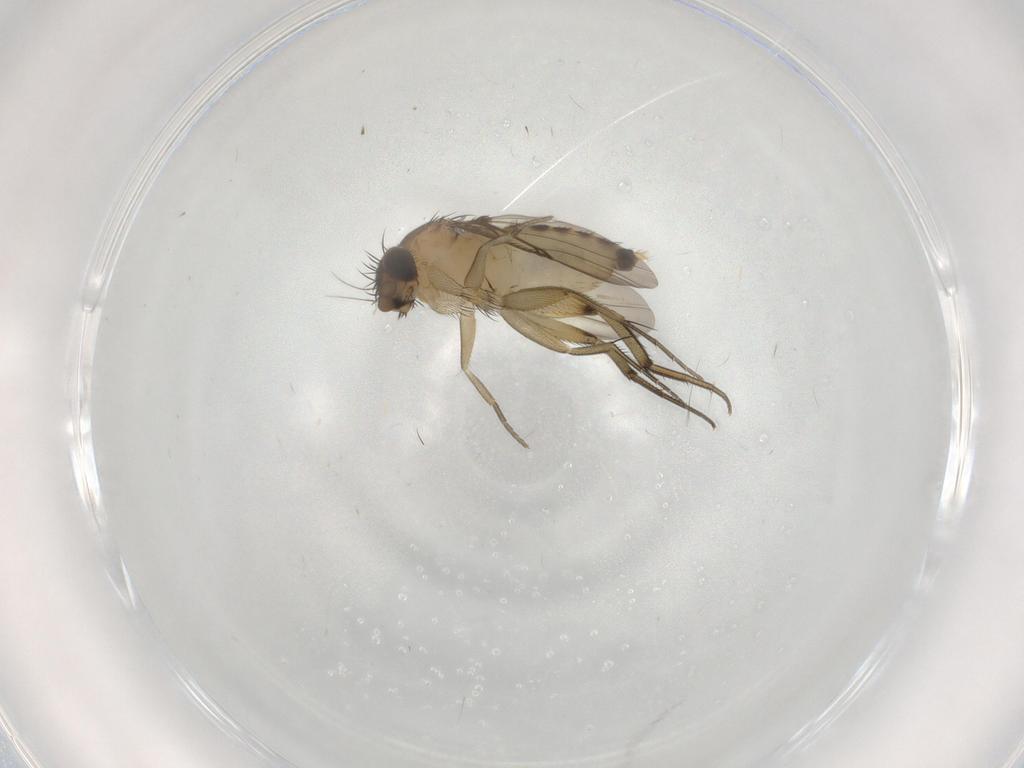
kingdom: Animalia
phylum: Arthropoda
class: Insecta
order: Diptera
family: Phoridae
